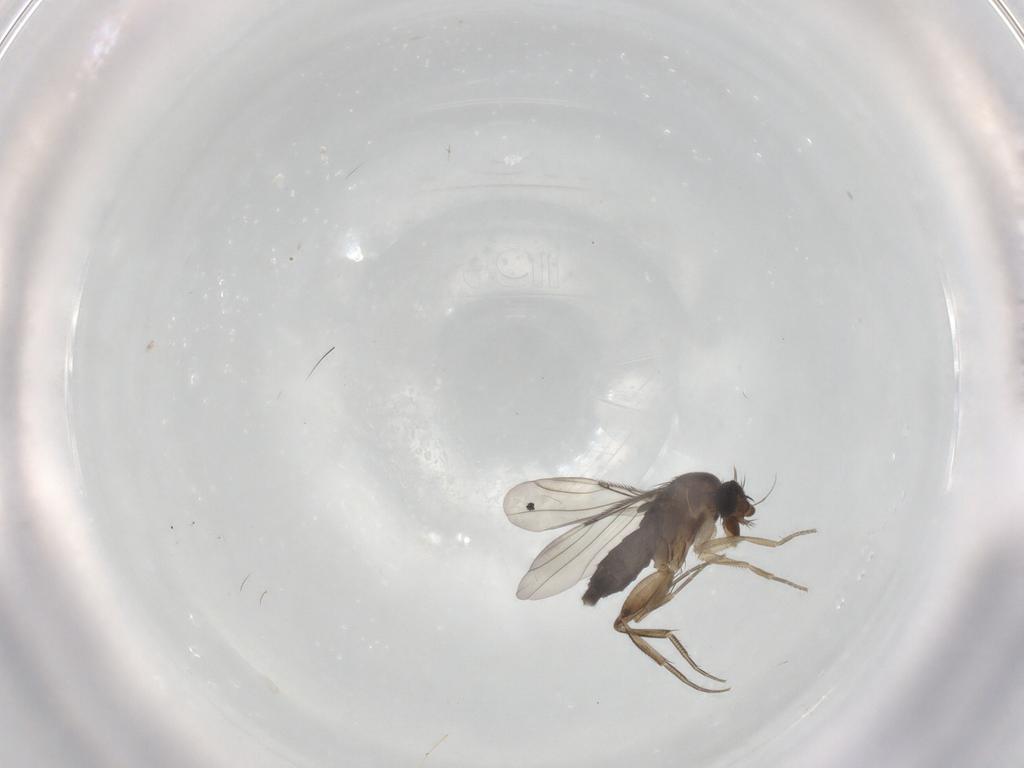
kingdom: Animalia
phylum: Arthropoda
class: Insecta
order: Diptera
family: Phoridae
